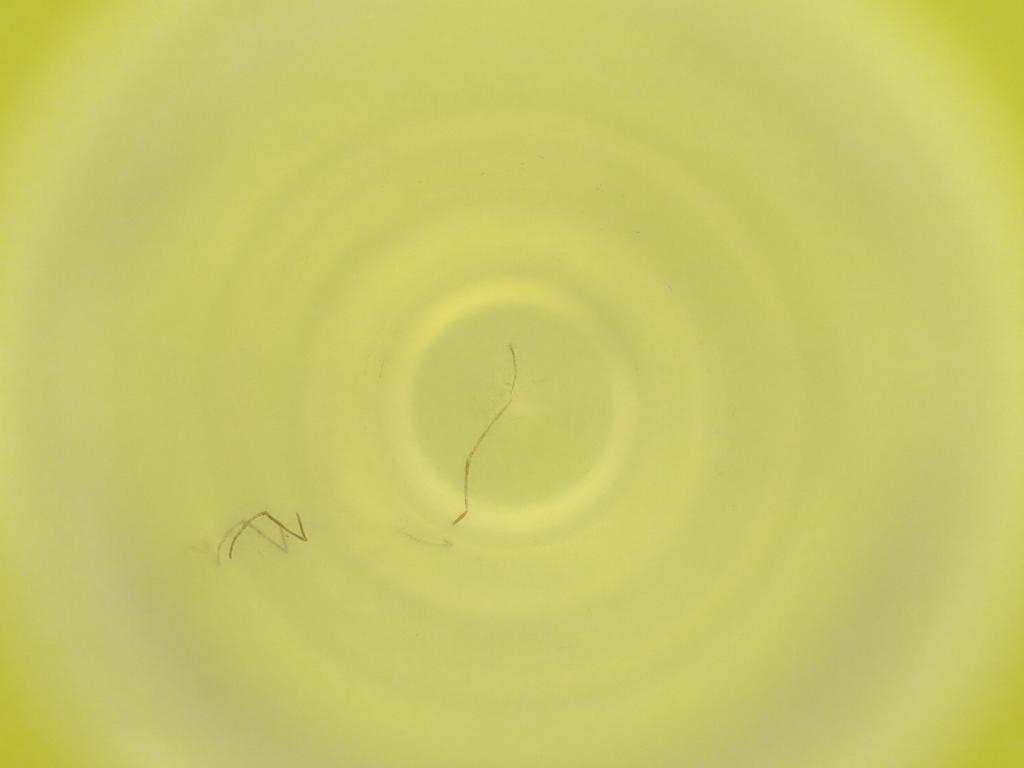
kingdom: Animalia
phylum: Arthropoda
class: Insecta
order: Diptera
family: Cecidomyiidae
